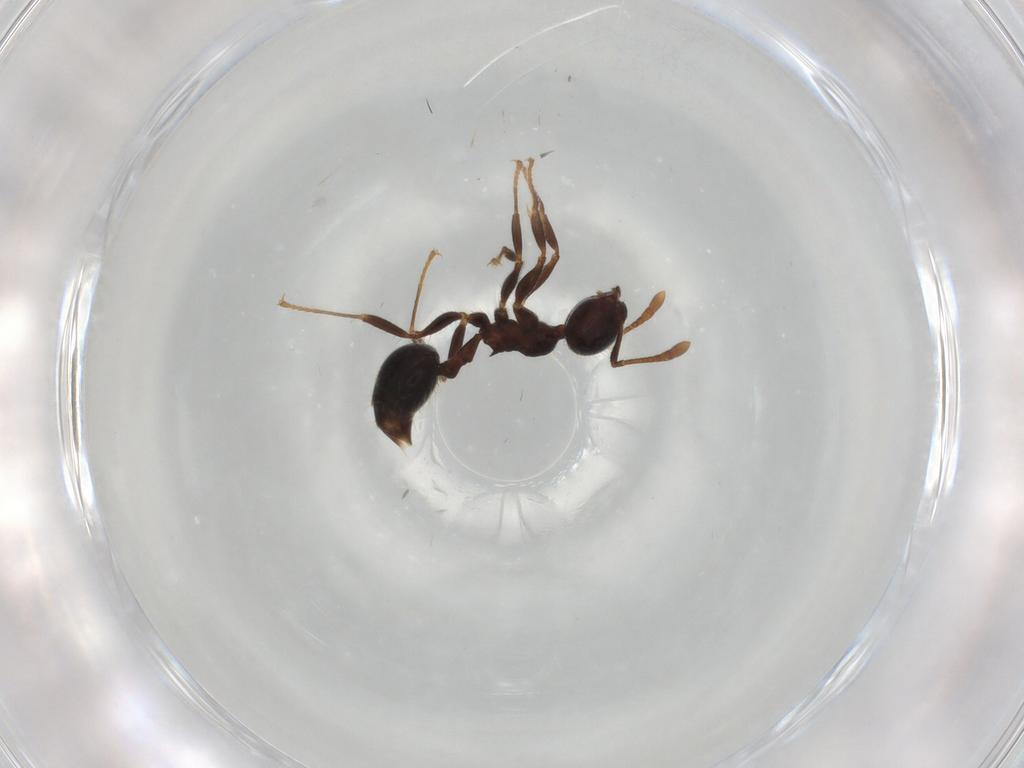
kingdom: Animalia
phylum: Arthropoda
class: Insecta
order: Hymenoptera
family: Formicidae
